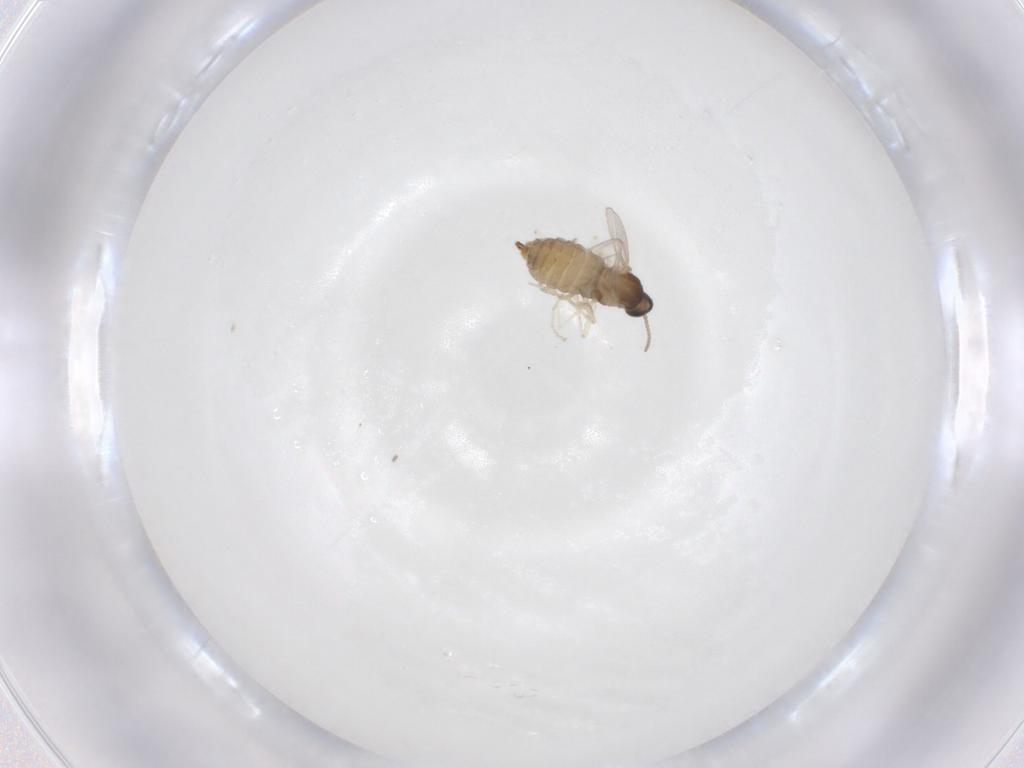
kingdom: Animalia
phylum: Arthropoda
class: Insecta
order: Diptera
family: Cecidomyiidae
